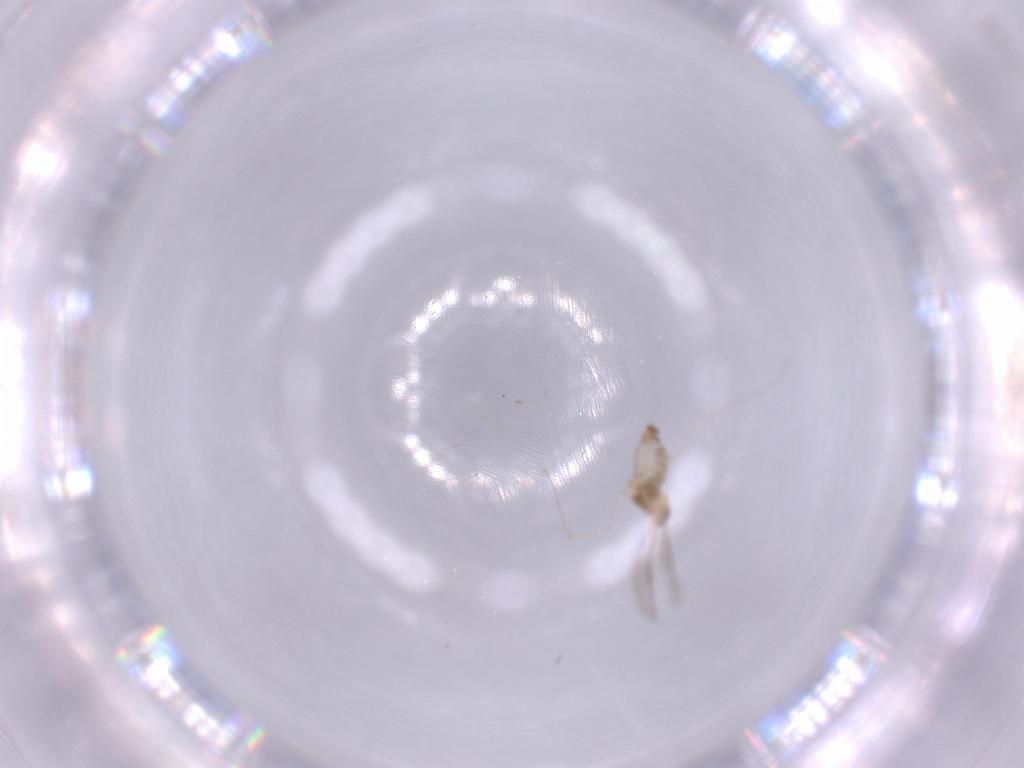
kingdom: Animalia
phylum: Arthropoda
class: Insecta
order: Diptera
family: Cecidomyiidae
